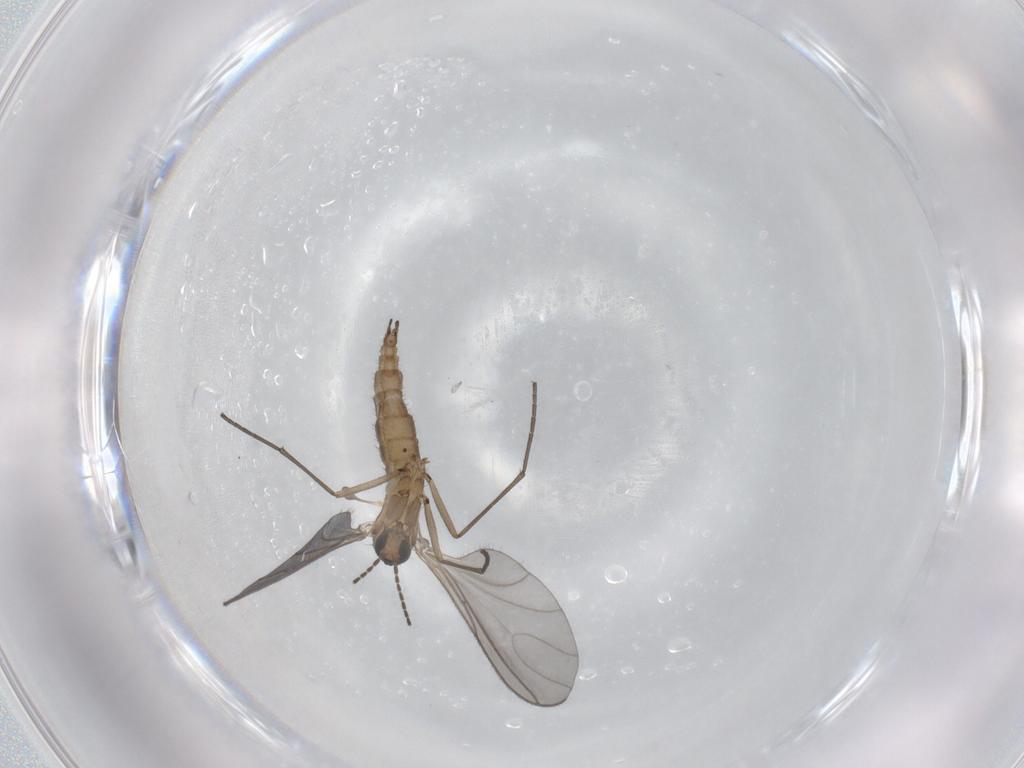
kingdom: Animalia
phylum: Arthropoda
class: Insecta
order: Diptera
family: Sciaridae
